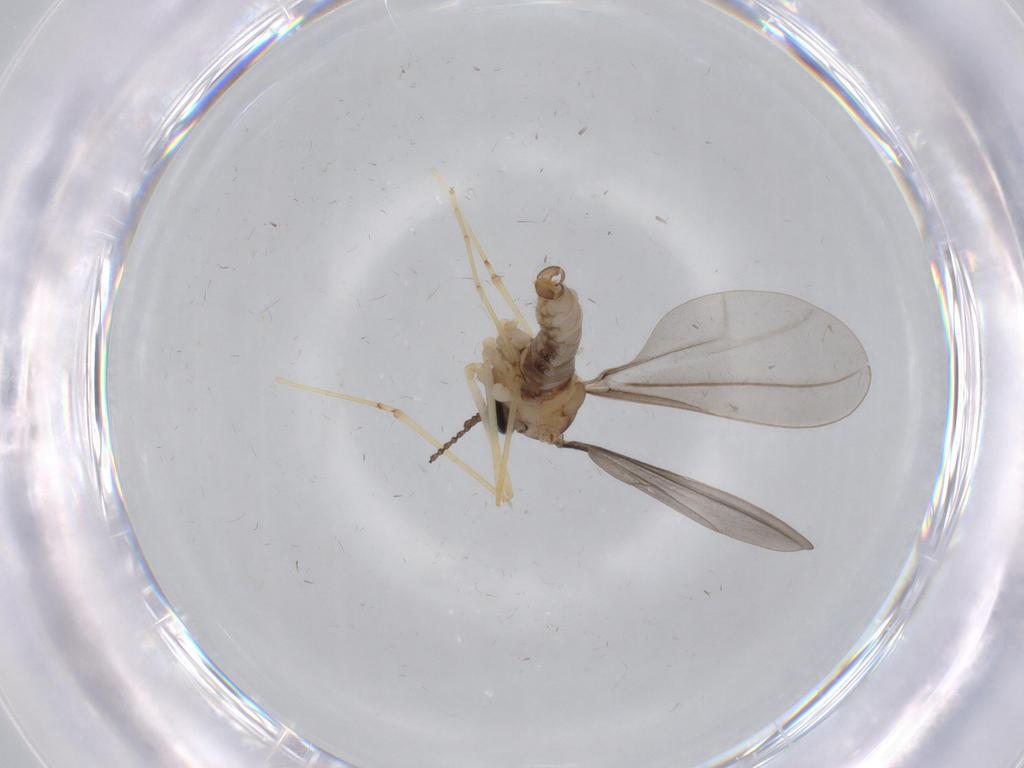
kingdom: Animalia
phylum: Arthropoda
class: Insecta
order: Diptera
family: Cecidomyiidae
